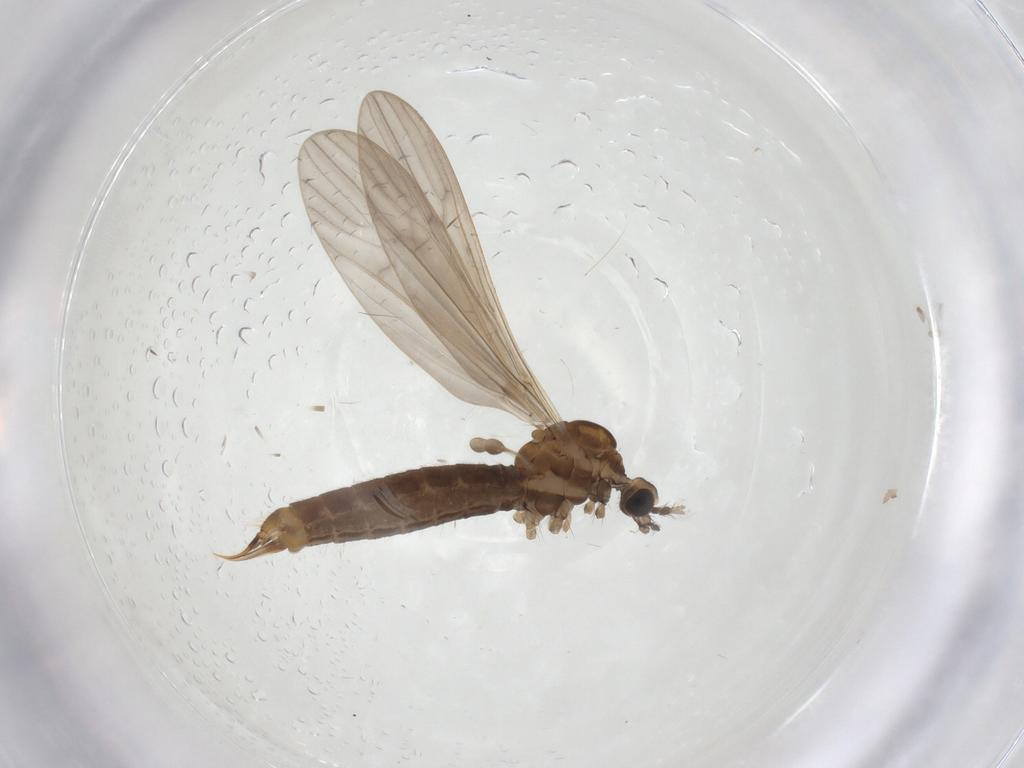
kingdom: Animalia
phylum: Arthropoda
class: Insecta
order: Diptera
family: Limoniidae
